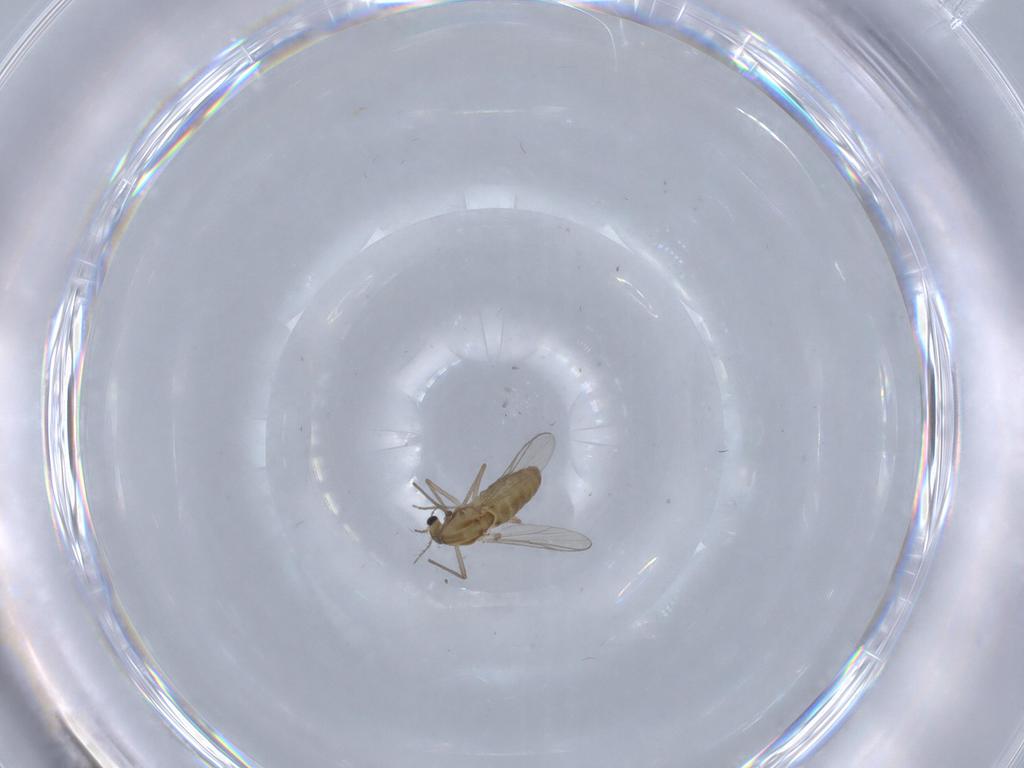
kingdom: Animalia
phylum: Arthropoda
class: Insecta
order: Diptera
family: Chironomidae
